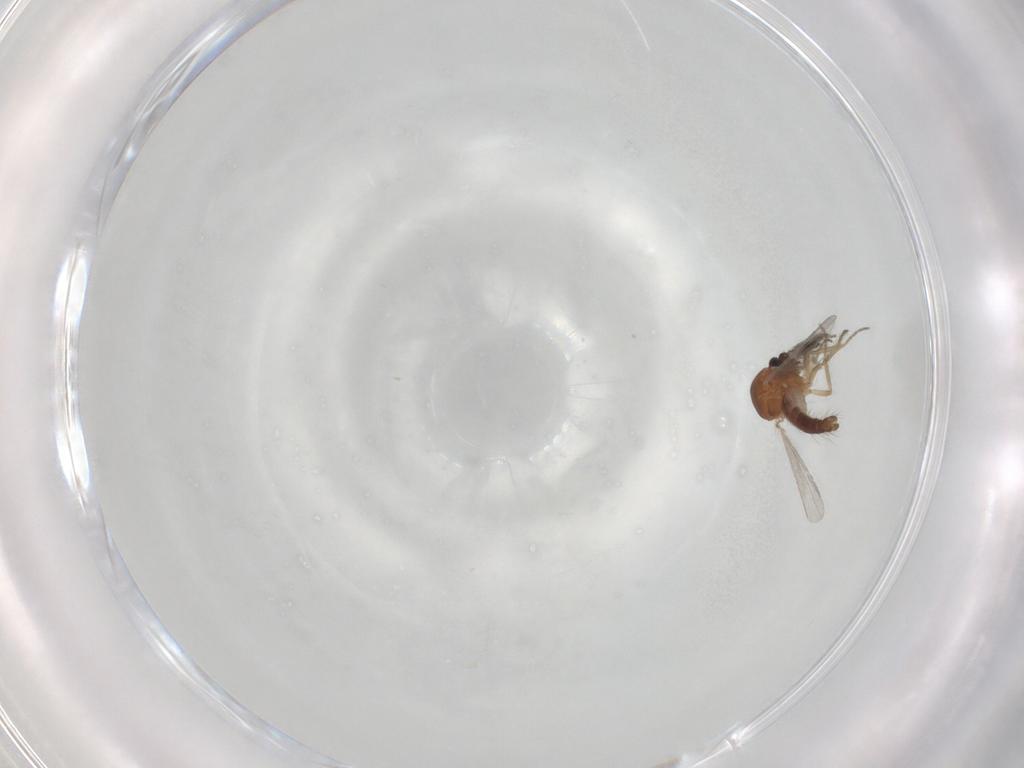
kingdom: Animalia
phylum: Arthropoda
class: Insecta
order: Diptera
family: Ceratopogonidae
